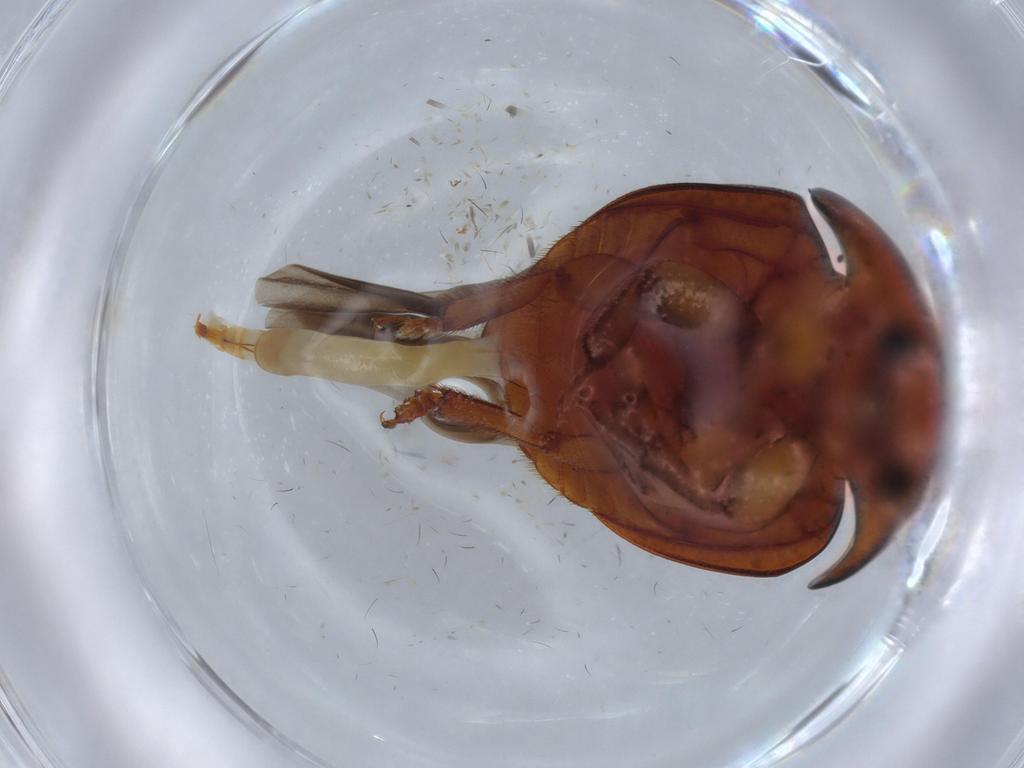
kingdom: Animalia
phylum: Arthropoda
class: Insecta
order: Coleoptera
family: Nitidulidae
